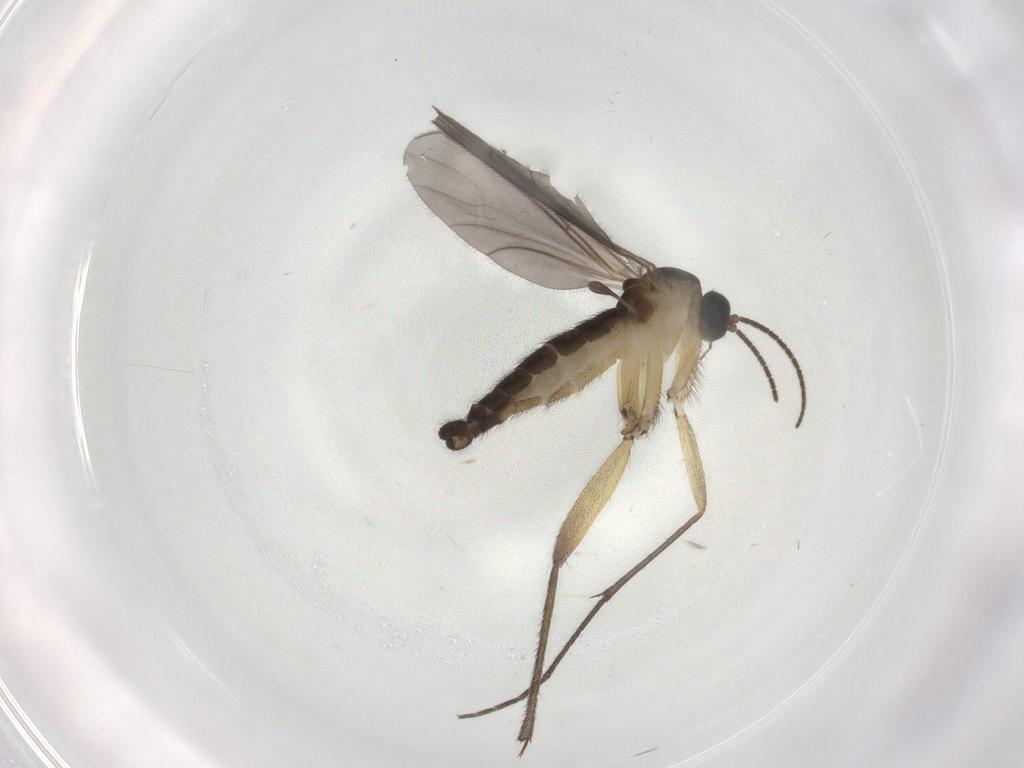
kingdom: Animalia
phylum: Arthropoda
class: Insecta
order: Diptera
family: Sciaridae
